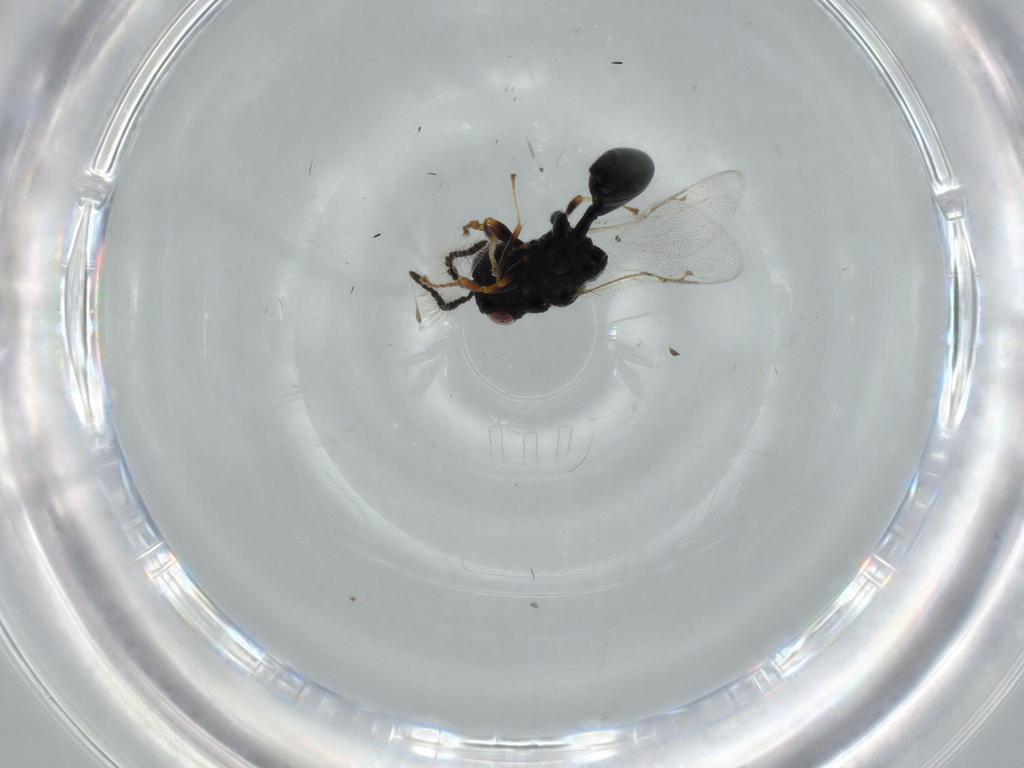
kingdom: Animalia
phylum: Arthropoda
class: Insecta
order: Hymenoptera
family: Eurytomidae
